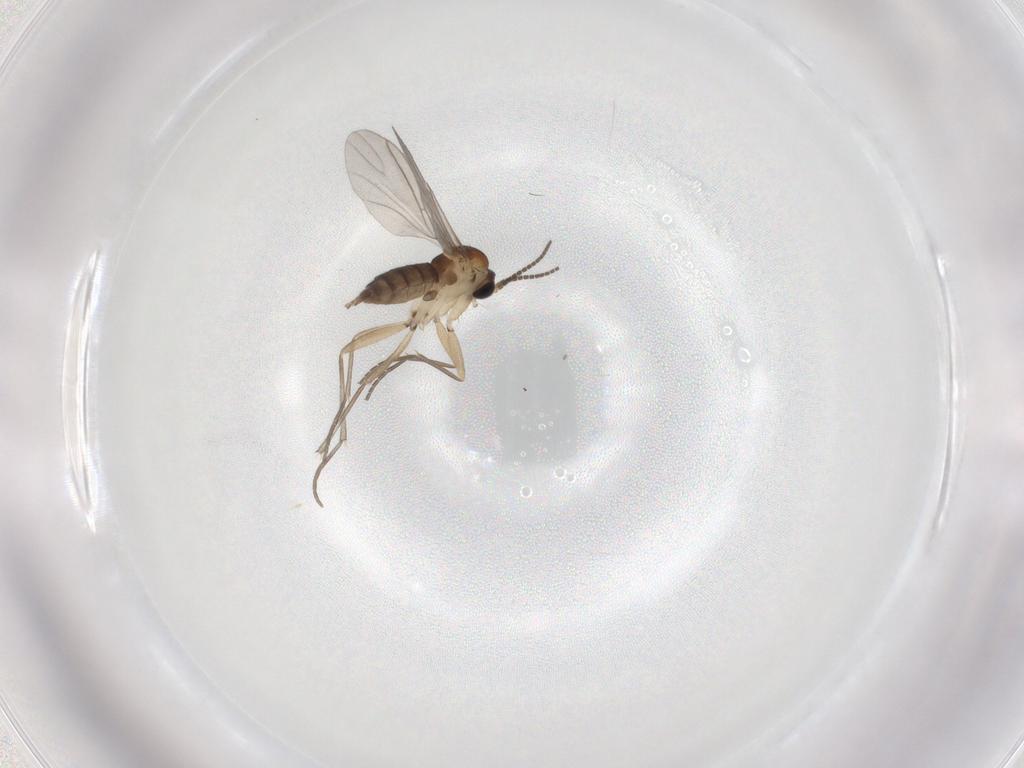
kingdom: Animalia
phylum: Arthropoda
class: Insecta
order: Diptera
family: Sciaridae
